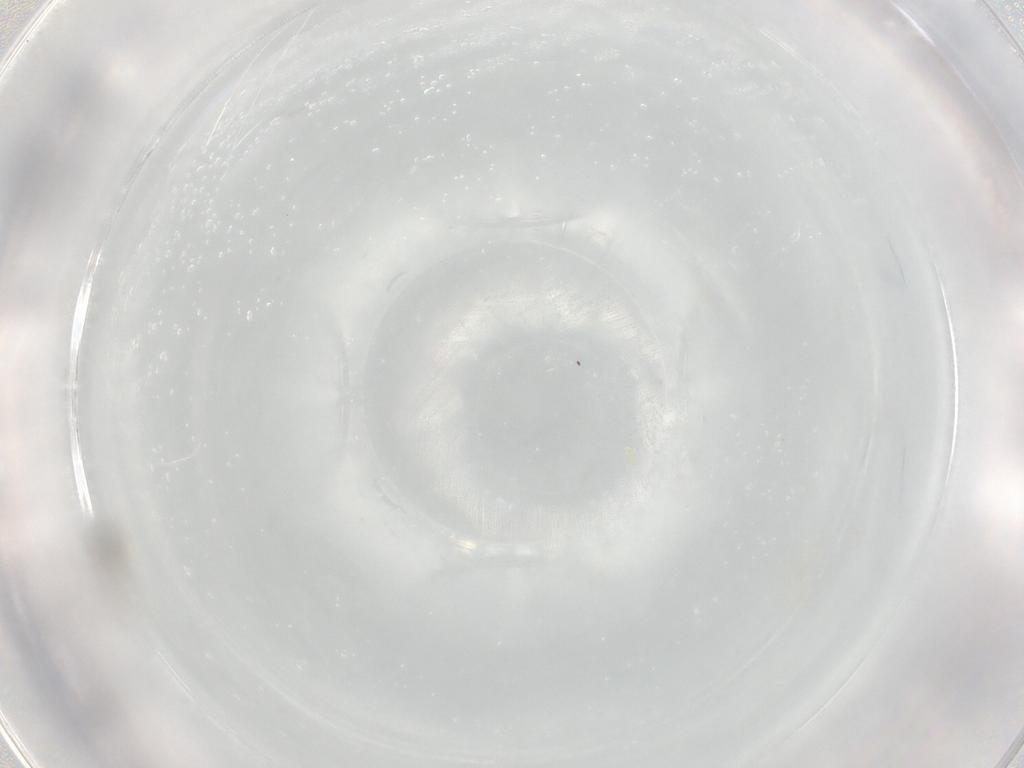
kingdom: Animalia
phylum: Arthropoda
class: Insecta
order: Diptera
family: Cecidomyiidae
